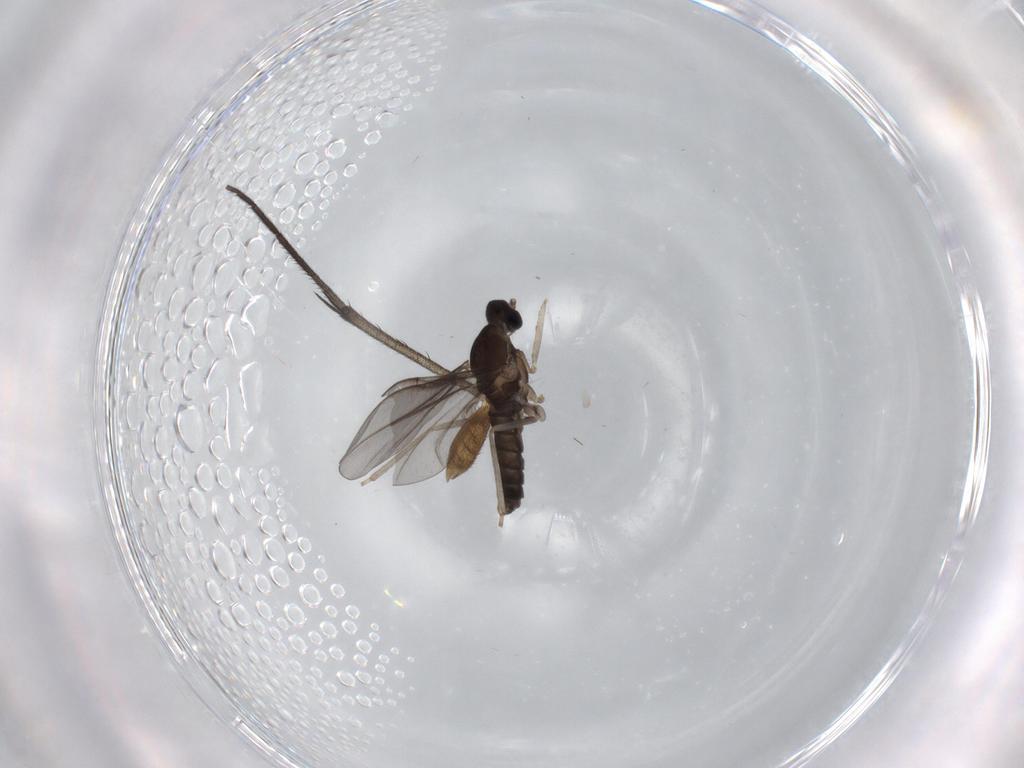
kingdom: Animalia
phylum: Arthropoda
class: Insecta
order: Diptera
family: Cecidomyiidae
